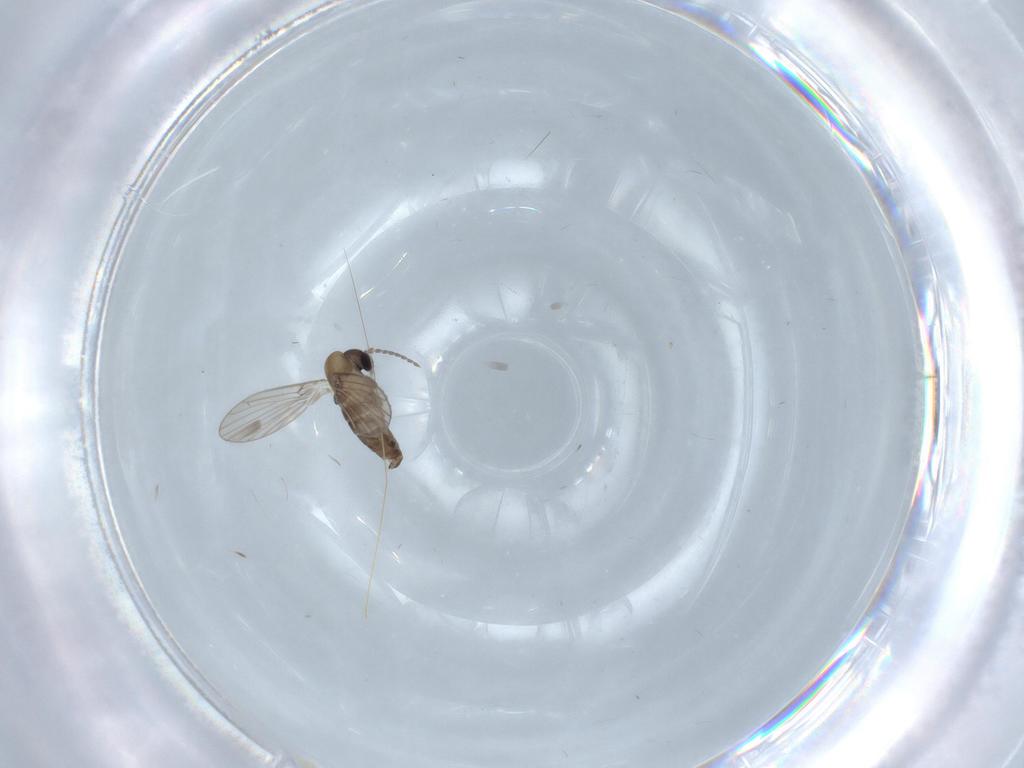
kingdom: Animalia
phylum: Arthropoda
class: Insecta
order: Diptera
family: Psychodidae
